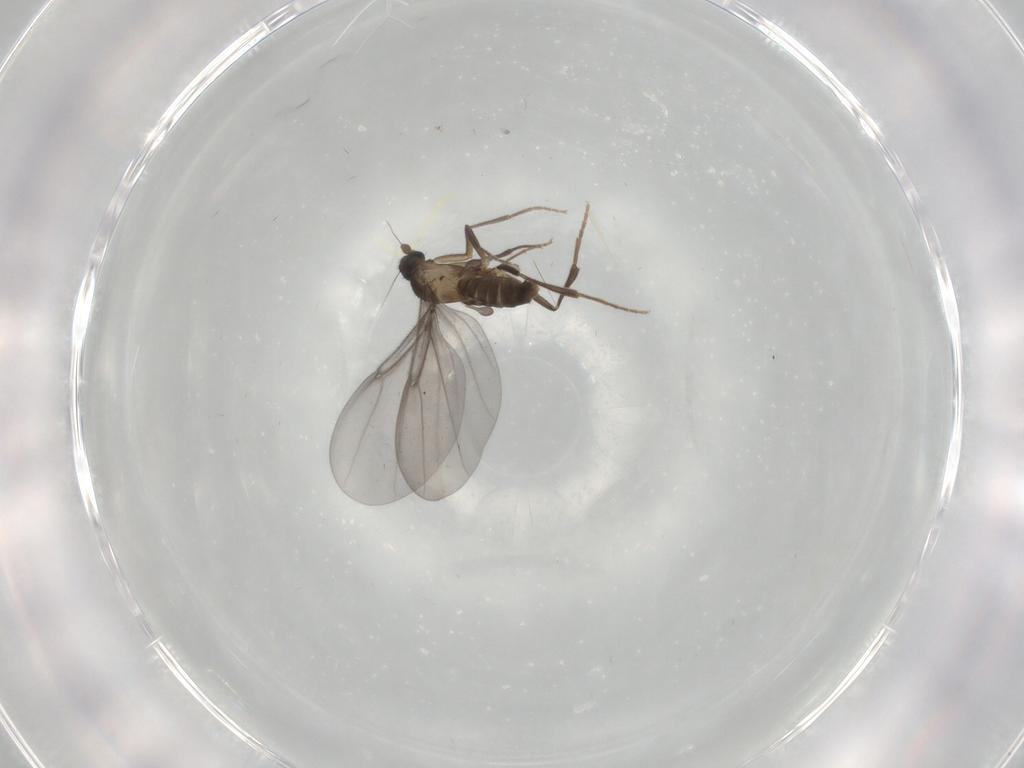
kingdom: Animalia
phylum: Arthropoda
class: Insecta
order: Diptera
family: Phoridae
